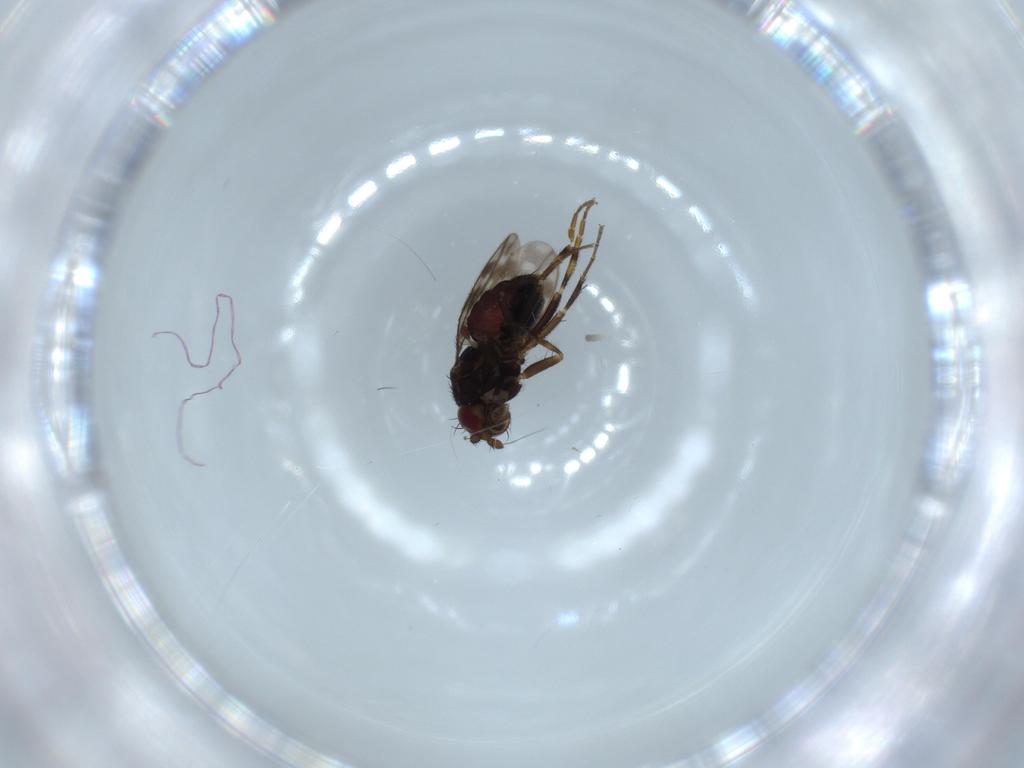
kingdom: Animalia
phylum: Arthropoda
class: Insecta
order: Diptera
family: Sphaeroceridae
